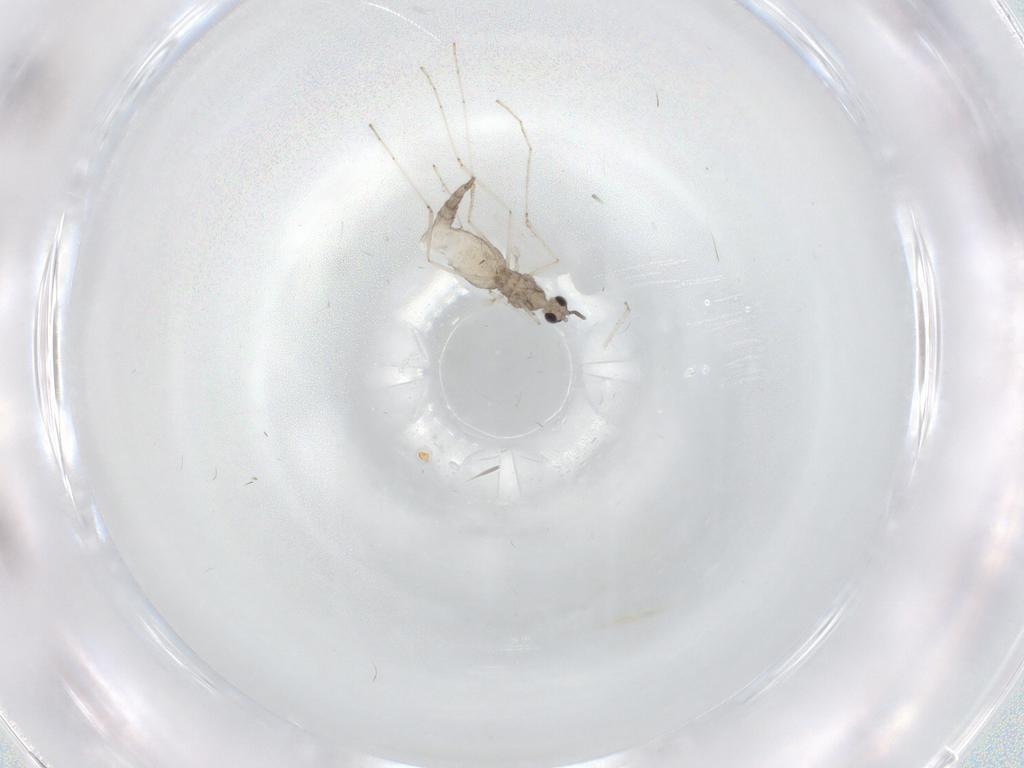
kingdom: Animalia
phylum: Arthropoda
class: Insecta
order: Diptera
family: Cecidomyiidae
